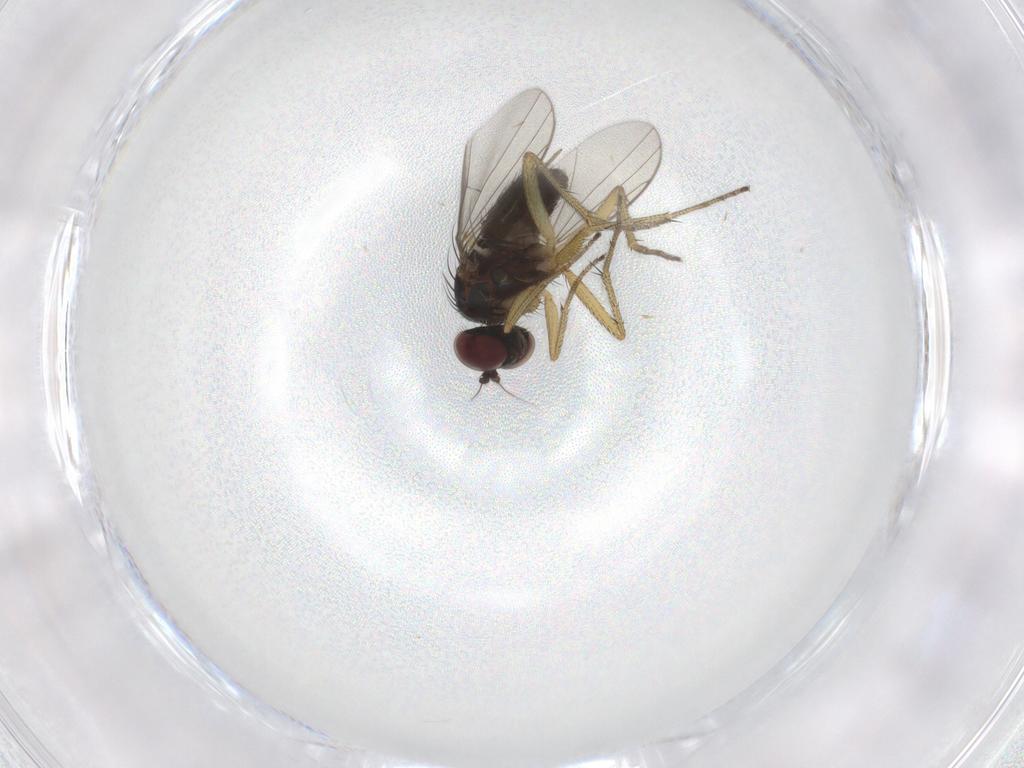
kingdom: Animalia
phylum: Arthropoda
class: Insecta
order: Diptera
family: Dolichopodidae
